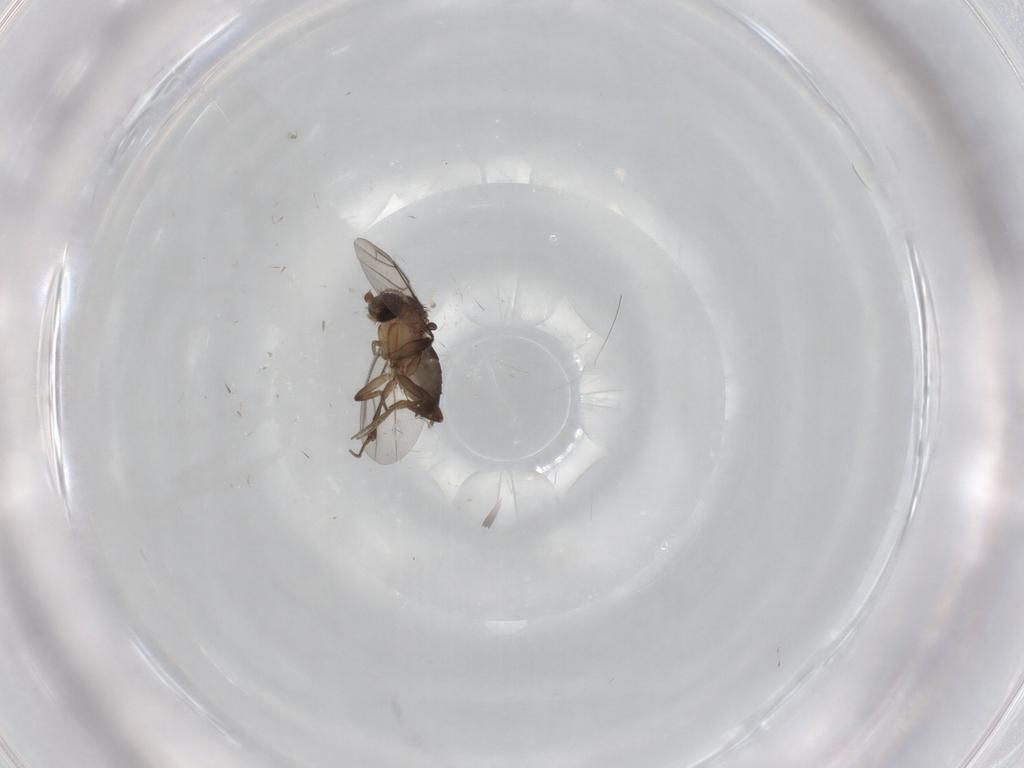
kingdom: Animalia
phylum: Arthropoda
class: Insecta
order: Diptera
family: Phoridae
